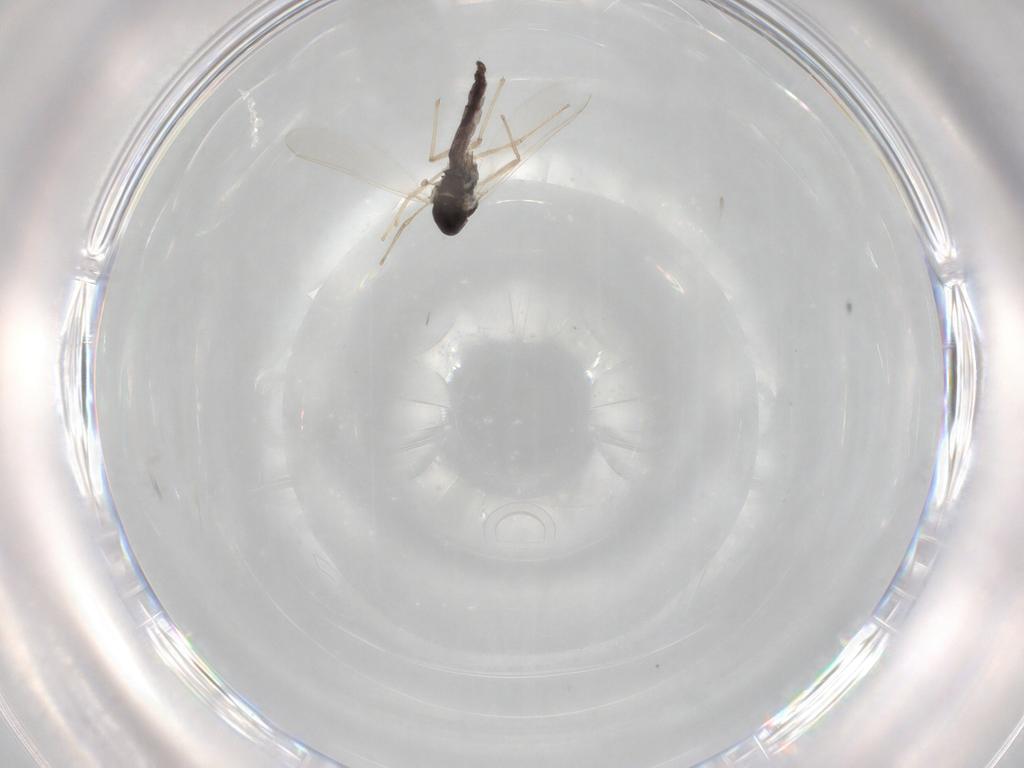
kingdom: Animalia
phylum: Arthropoda
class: Insecta
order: Diptera
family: Chironomidae
